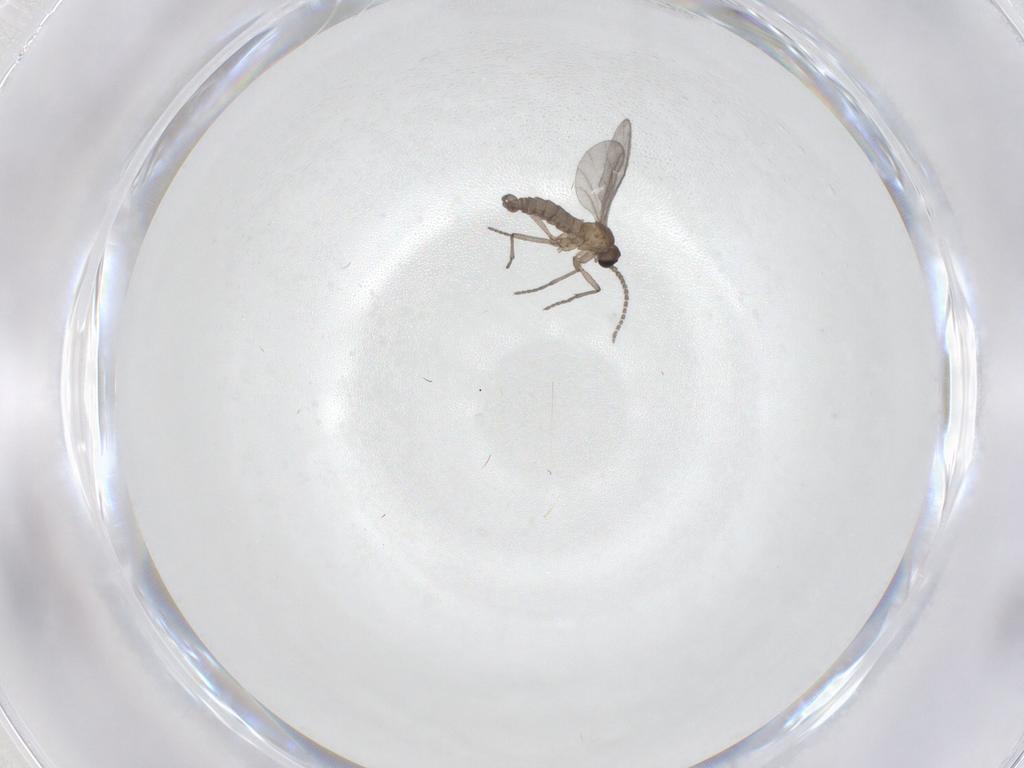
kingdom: Animalia
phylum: Arthropoda
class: Insecta
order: Diptera
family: Sciaridae
